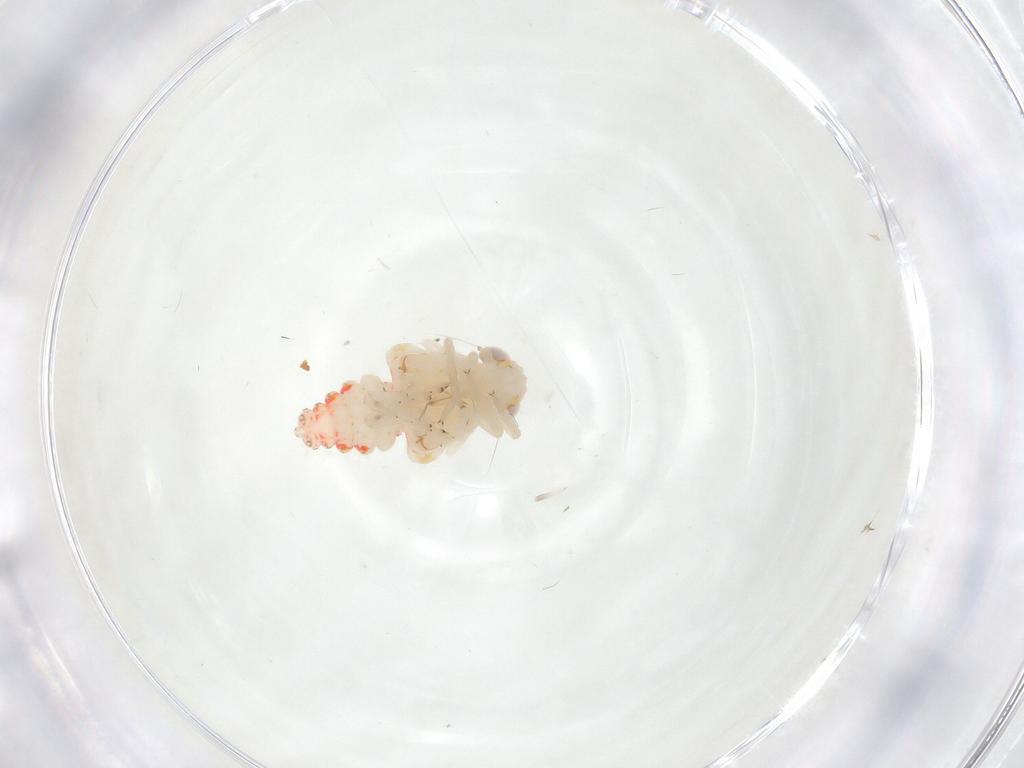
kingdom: Animalia
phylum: Arthropoda
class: Insecta
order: Hemiptera
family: Nogodinidae
